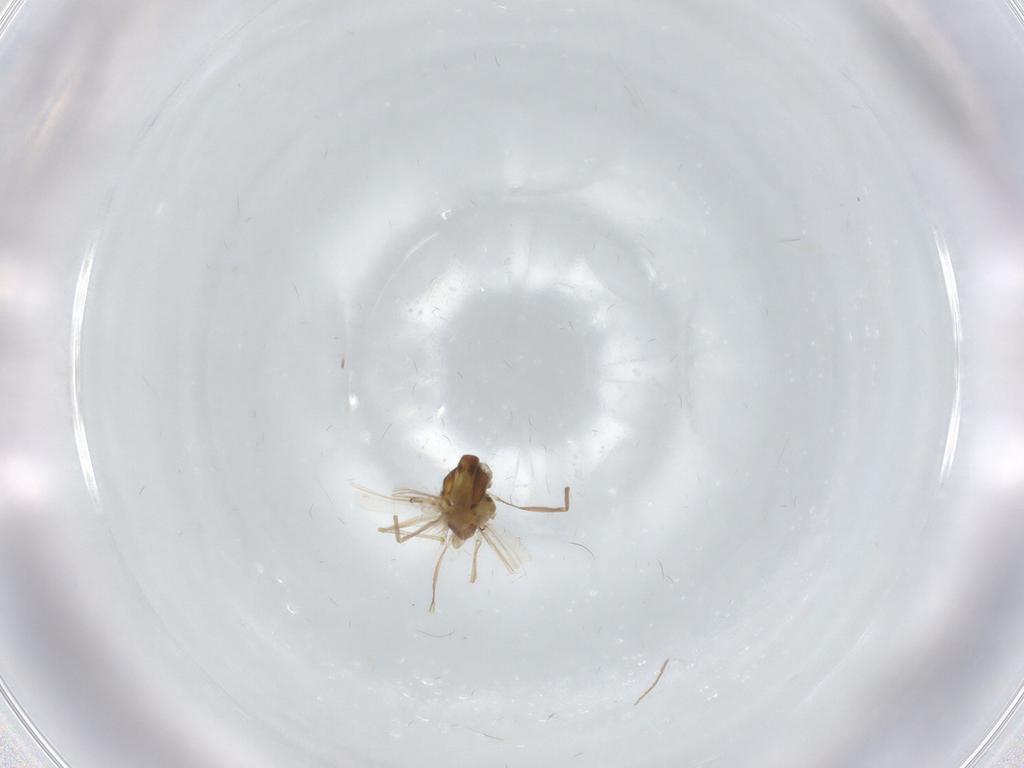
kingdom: Animalia
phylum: Arthropoda
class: Insecta
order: Diptera
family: Chironomidae
